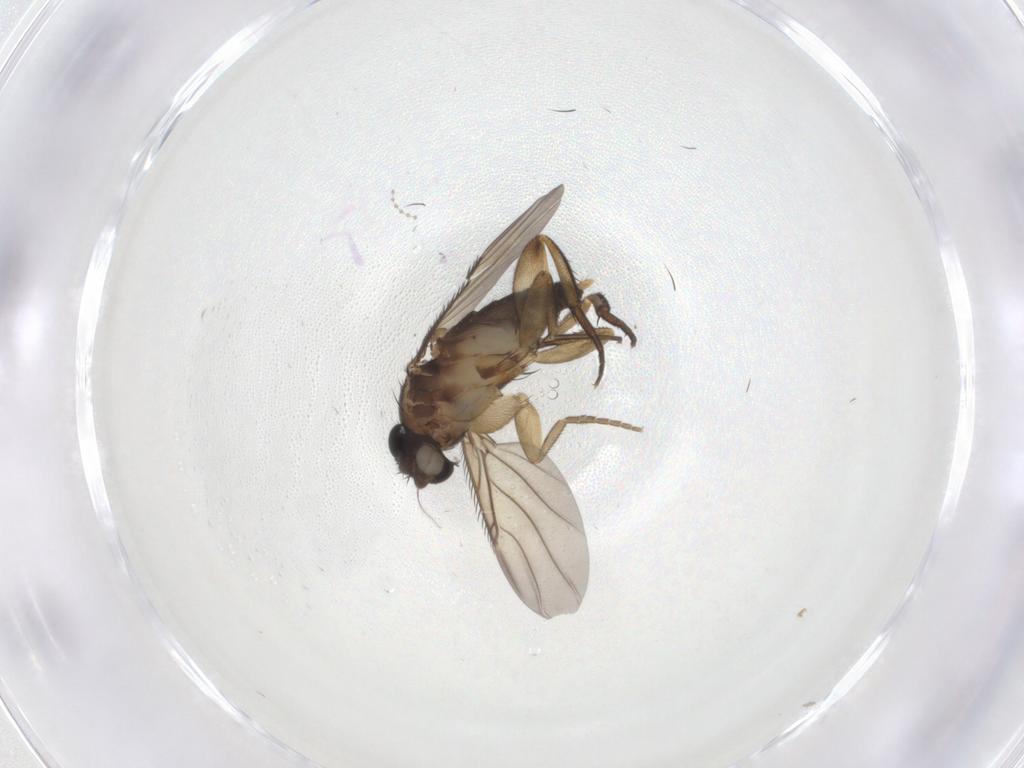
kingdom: Animalia
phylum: Arthropoda
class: Insecta
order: Diptera
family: Phoridae
